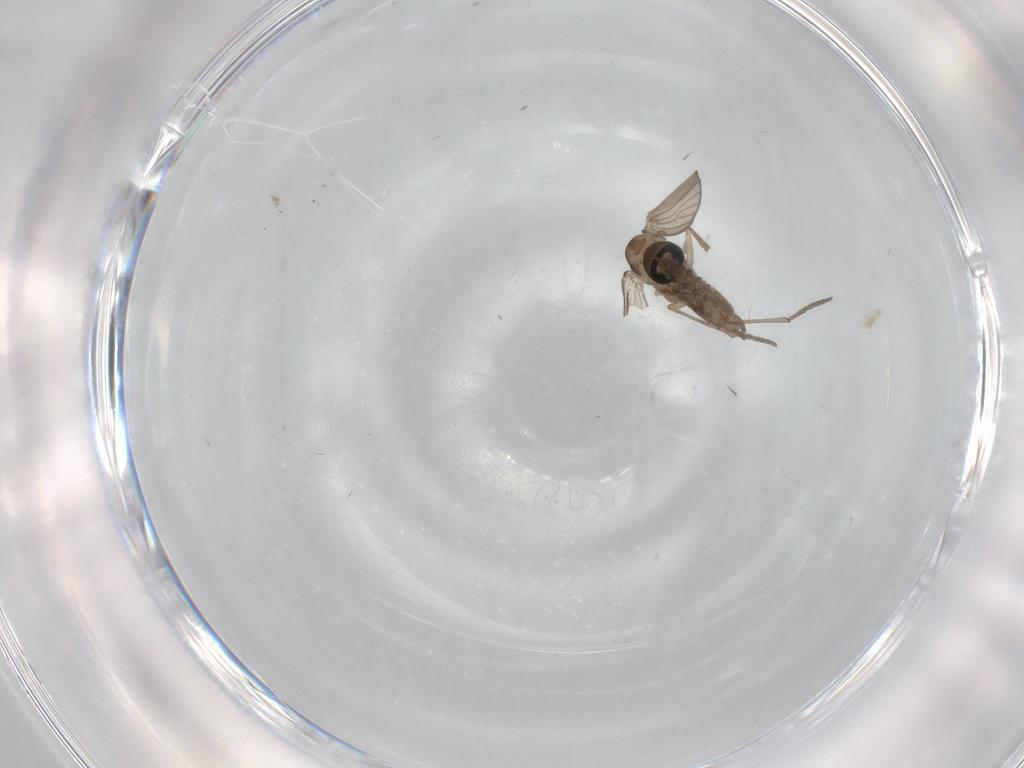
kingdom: Animalia
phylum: Arthropoda
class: Insecta
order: Diptera
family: Psychodidae
